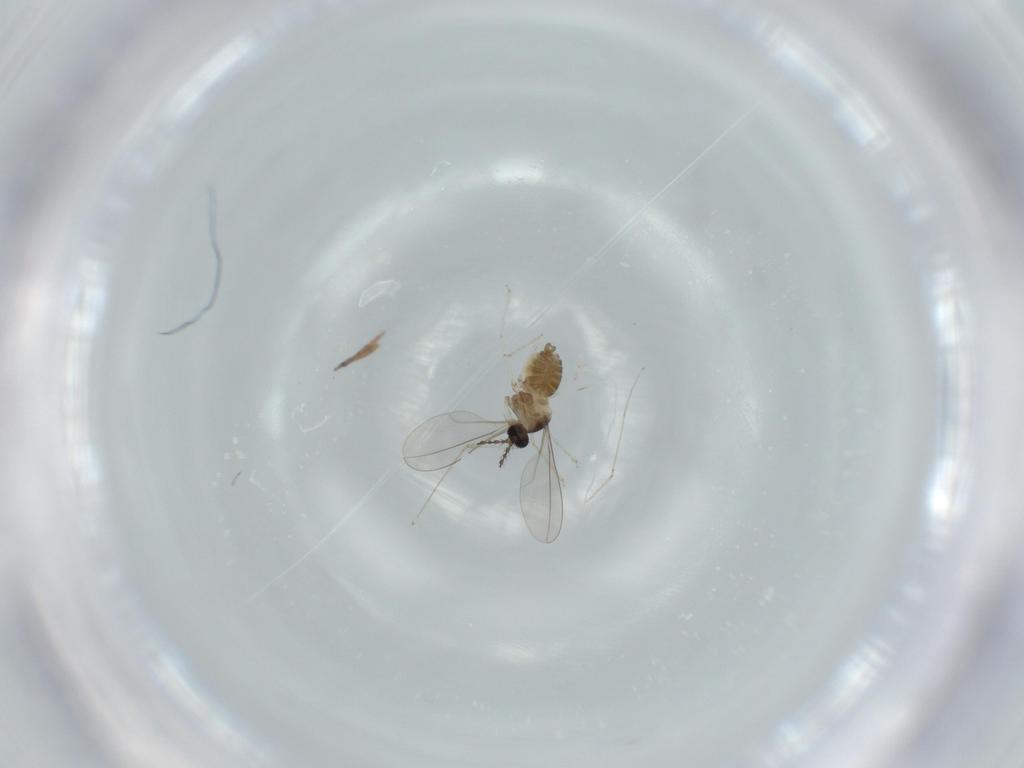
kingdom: Animalia
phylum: Arthropoda
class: Insecta
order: Diptera
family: Cecidomyiidae
